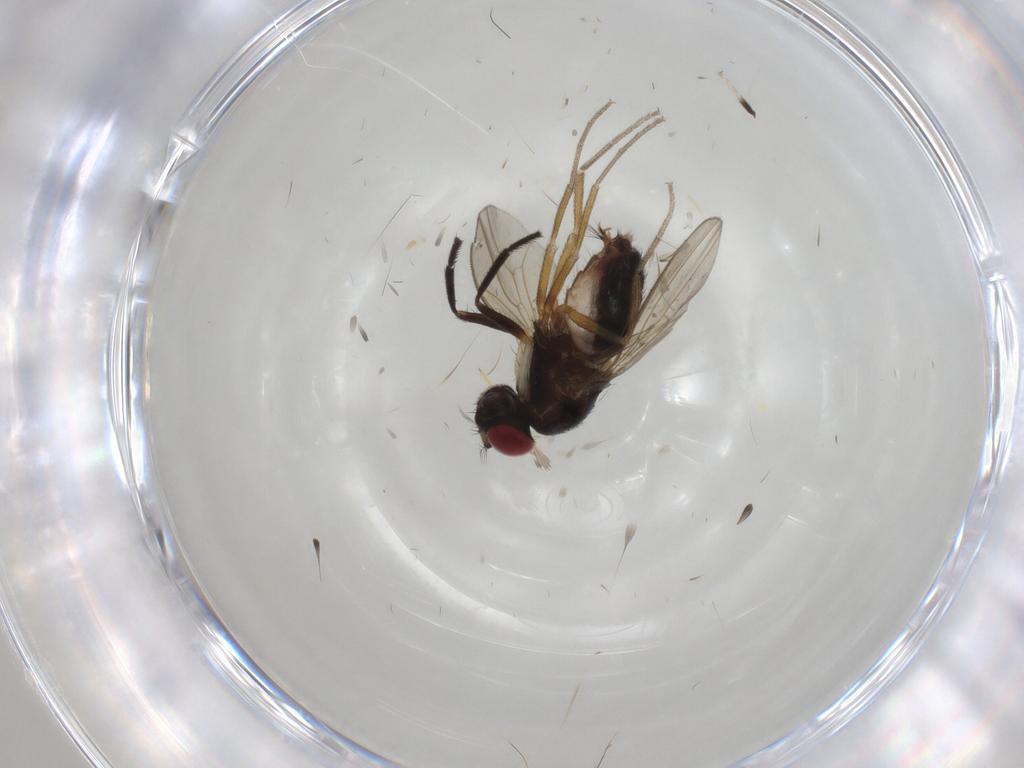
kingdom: Animalia
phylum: Arthropoda
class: Insecta
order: Diptera
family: Drosophilidae
